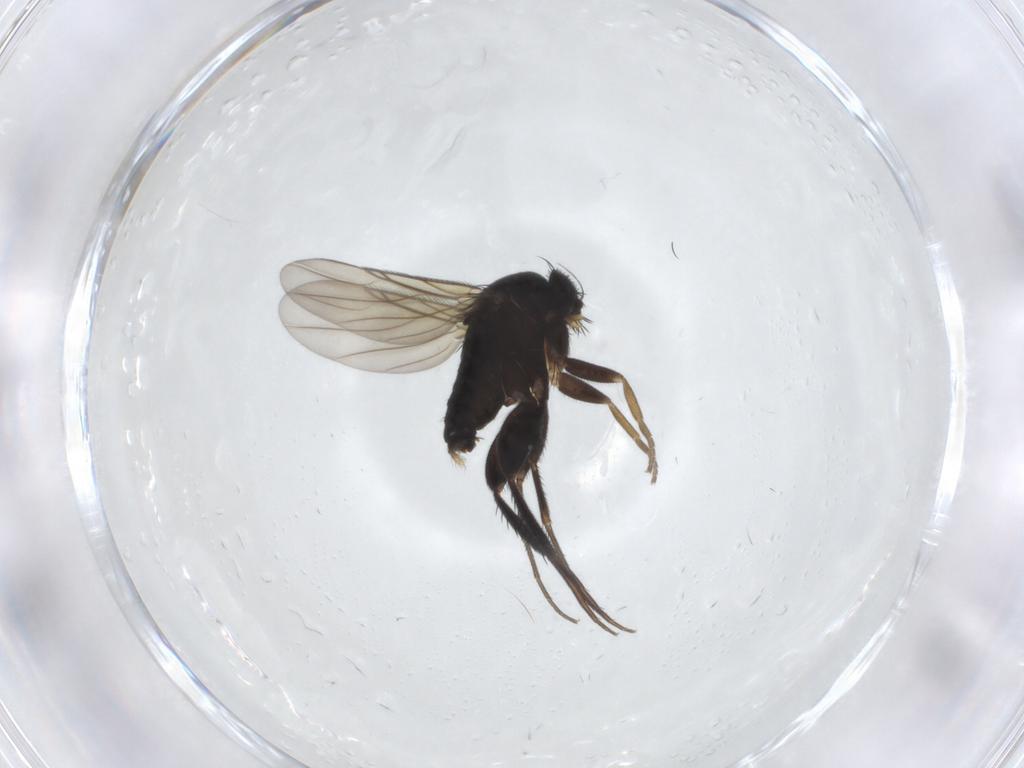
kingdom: Animalia
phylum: Arthropoda
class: Insecta
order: Diptera
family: Phoridae
